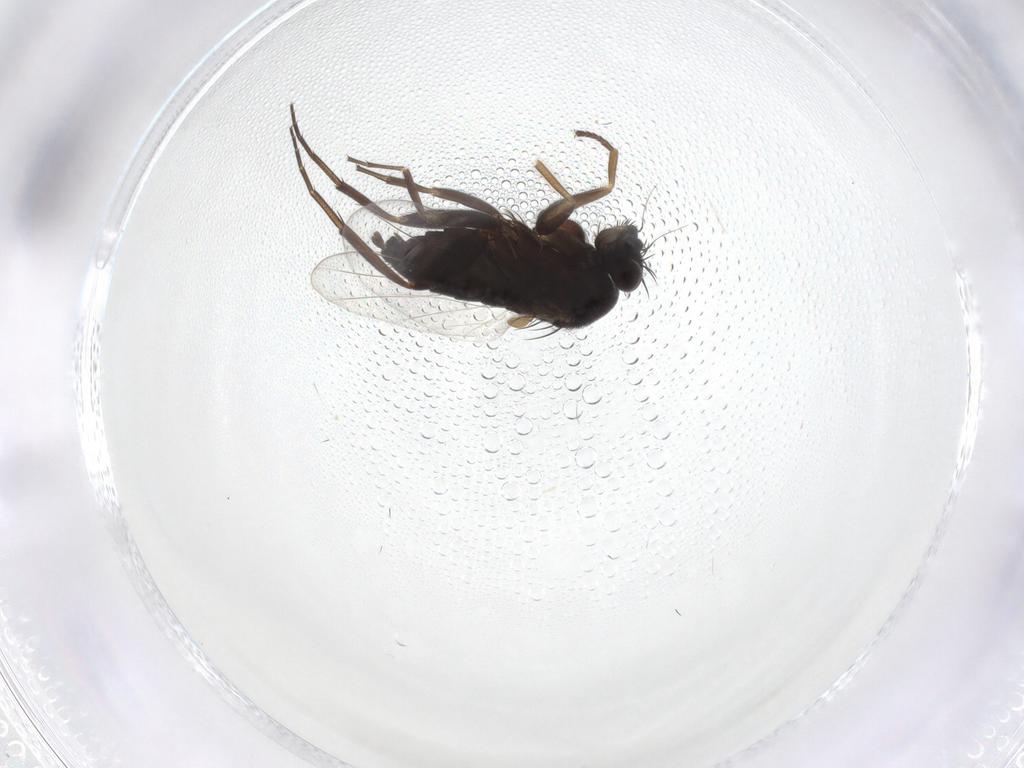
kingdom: Animalia
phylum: Arthropoda
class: Insecta
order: Diptera
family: Phoridae
